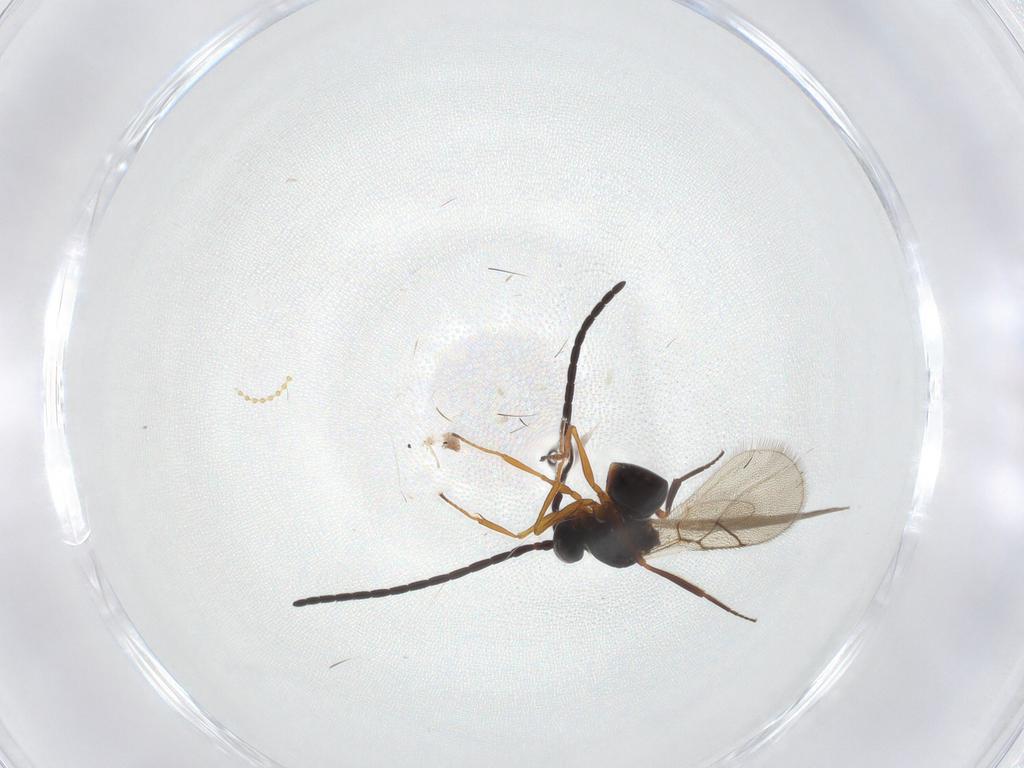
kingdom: Animalia
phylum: Arthropoda
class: Insecta
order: Hymenoptera
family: Figitidae
